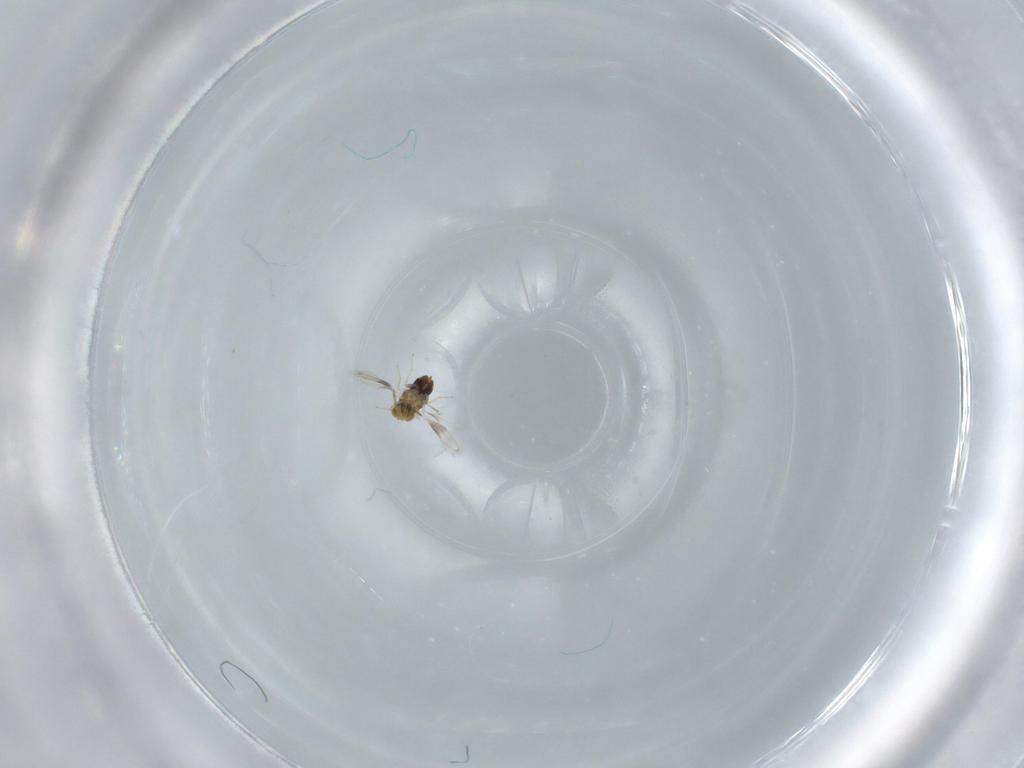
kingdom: Animalia
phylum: Arthropoda
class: Insecta
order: Hymenoptera
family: Aphelinidae
